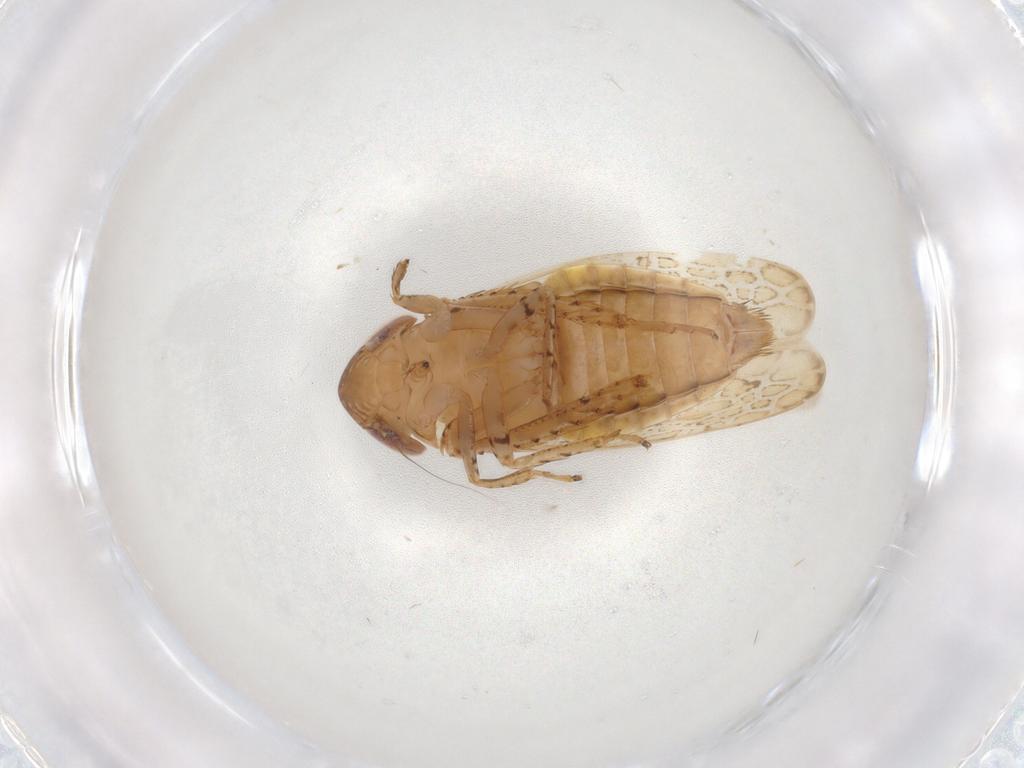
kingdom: Animalia
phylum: Arthropoda
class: Insecta
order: Hemiptera
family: Cicadellidae
